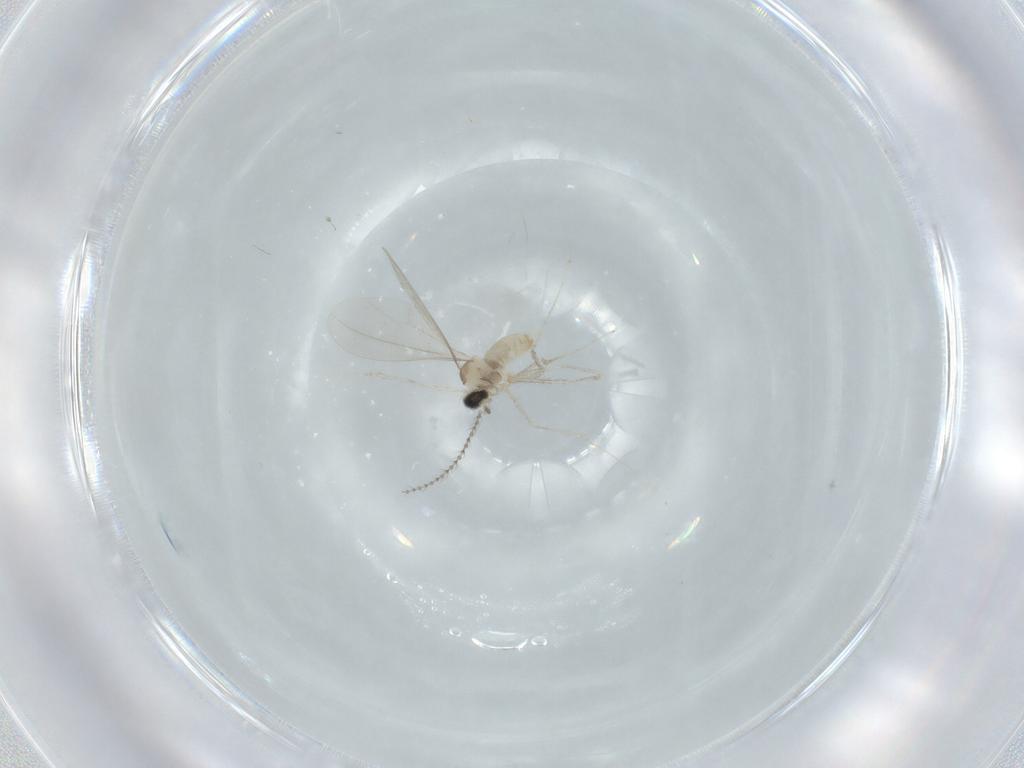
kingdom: Animalia
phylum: Arthropoda
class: Insecta
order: Diptera
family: Cecidomyiidae
